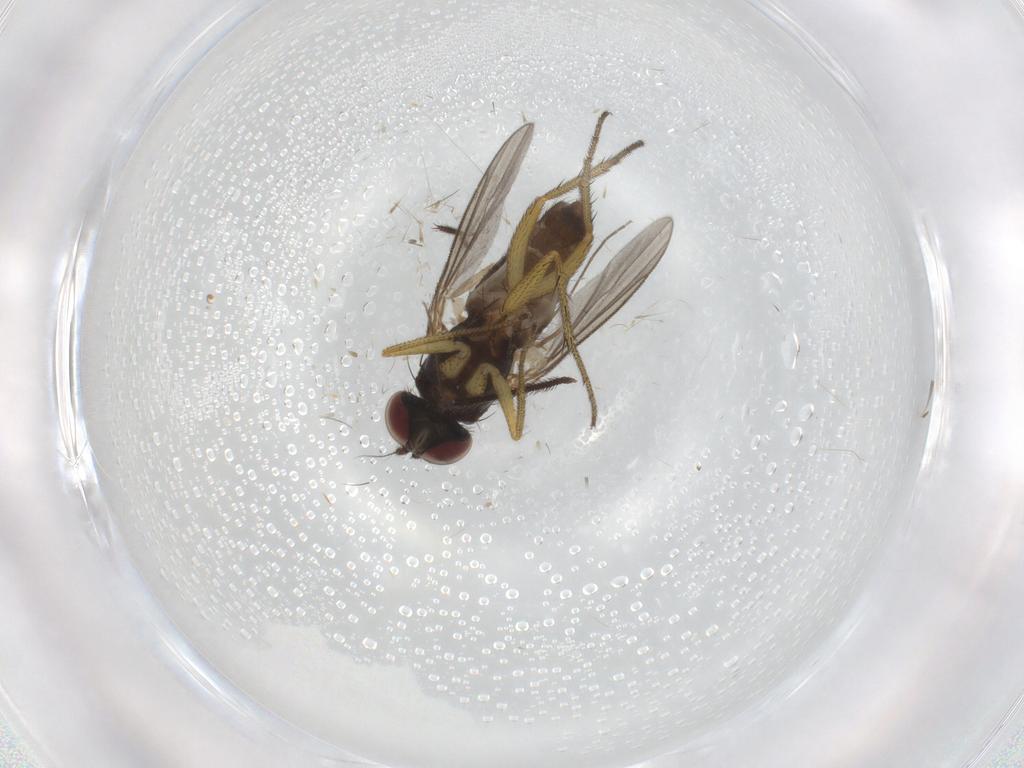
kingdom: Animalia
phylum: Arthropoda
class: Insecta
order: Diptera
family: Chironomidae
